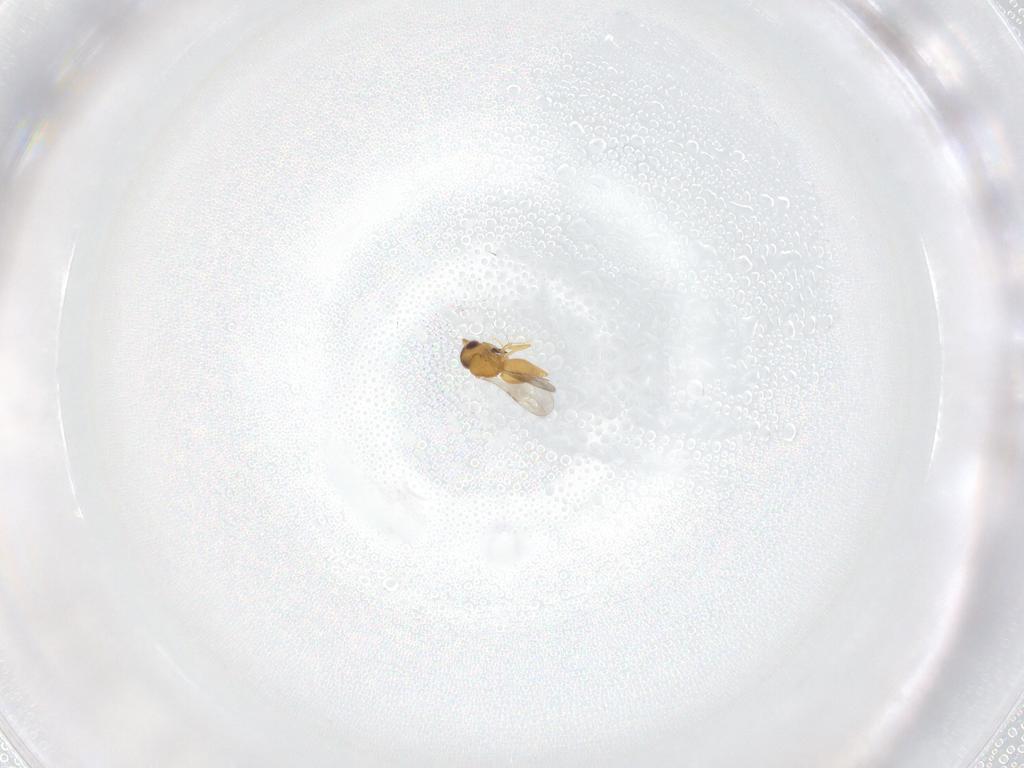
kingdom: Animalia
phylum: Arthropoda
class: Insecta
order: Hymenoptera
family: Ceraphronidae
